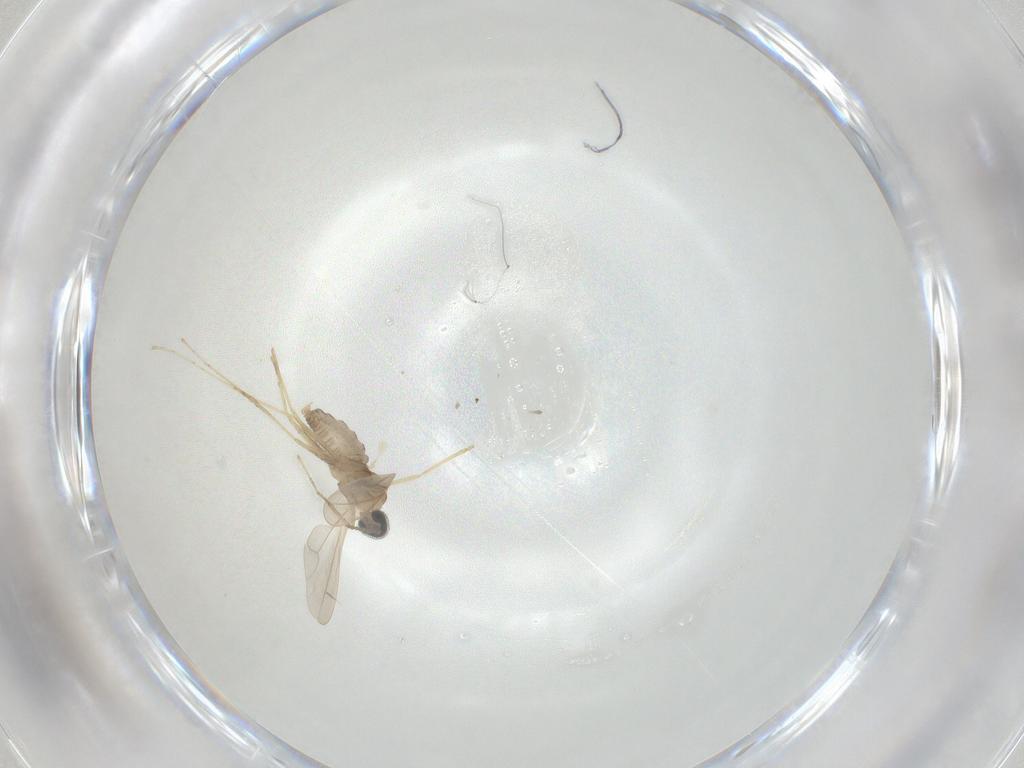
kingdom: Animalia
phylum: Arthropoda
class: Insecta
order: Diptera
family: Cecidomyiidae
